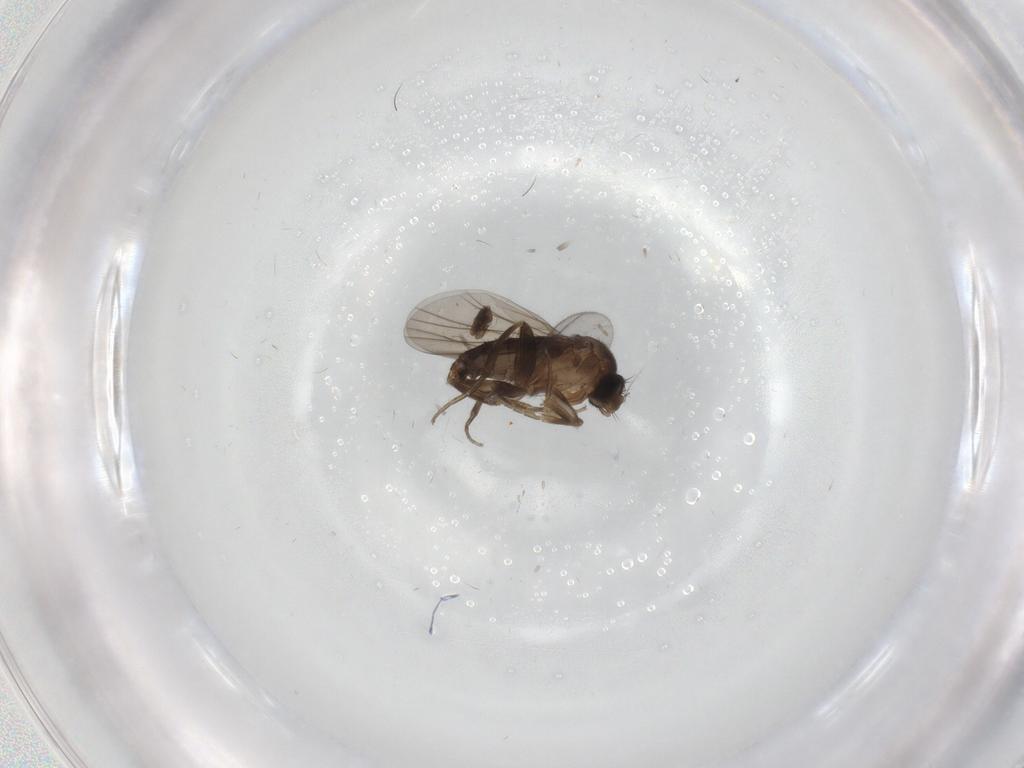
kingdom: Animalia
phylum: Arthropoda
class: Insecta
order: Diptera
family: Phoridae
